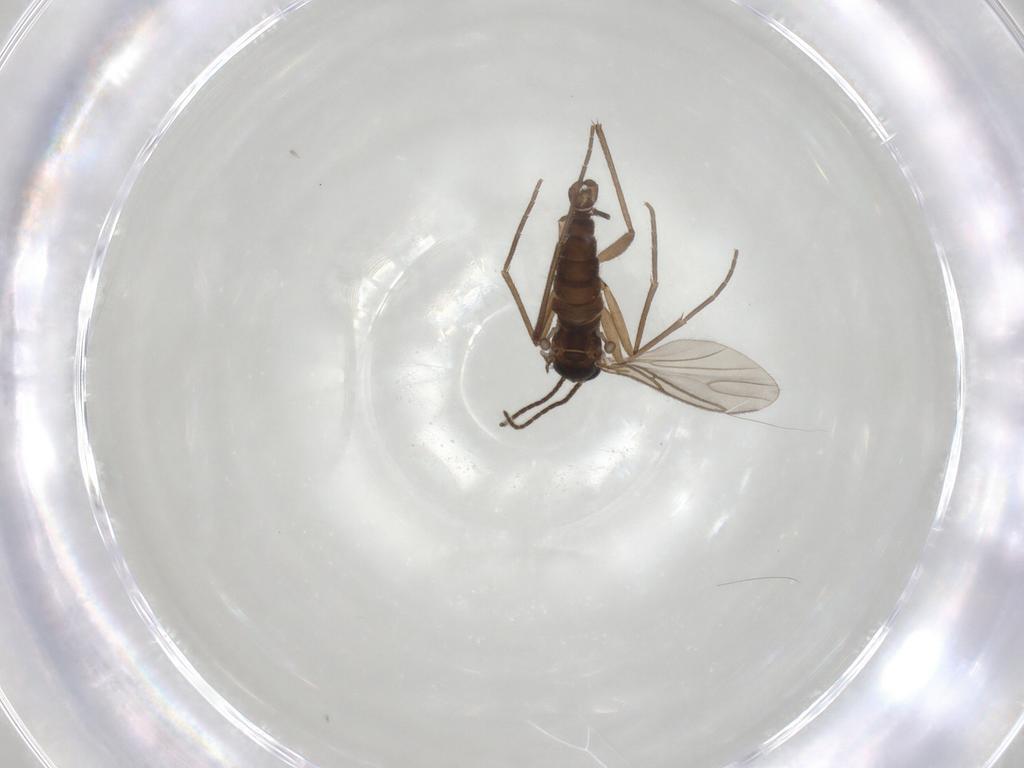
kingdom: Animalia
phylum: Arthropoda
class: Insecta
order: Diptera
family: Sciaridae
